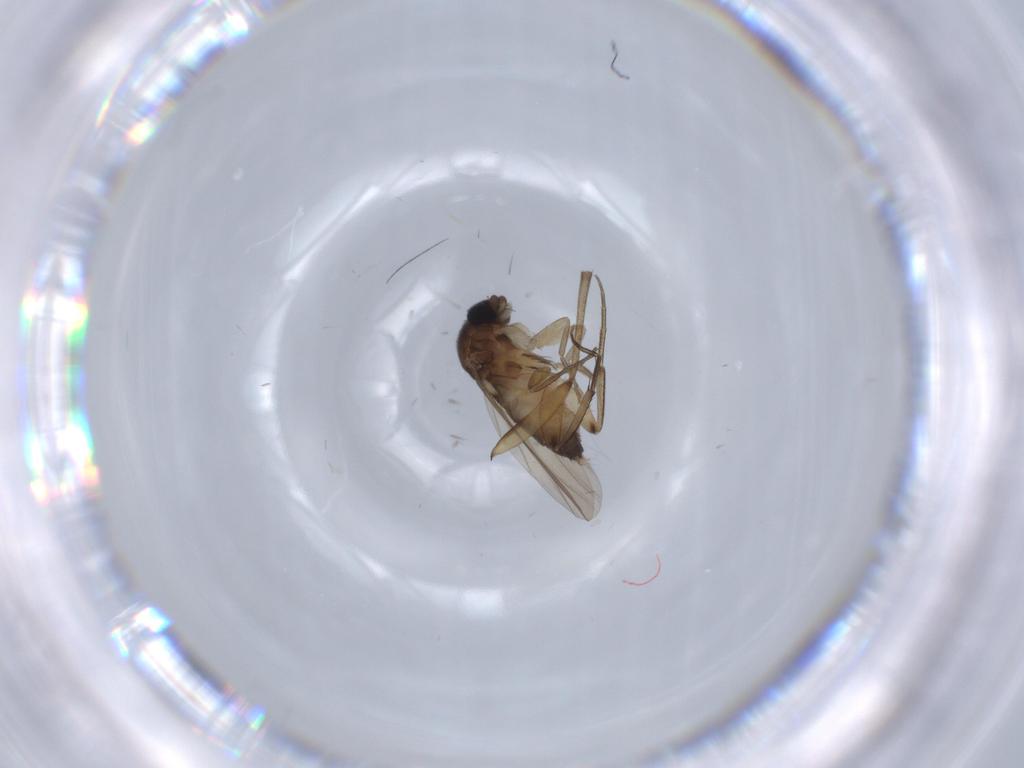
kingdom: Animalia
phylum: Arthropoda
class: Insecta
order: Diptera
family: Phoridae
